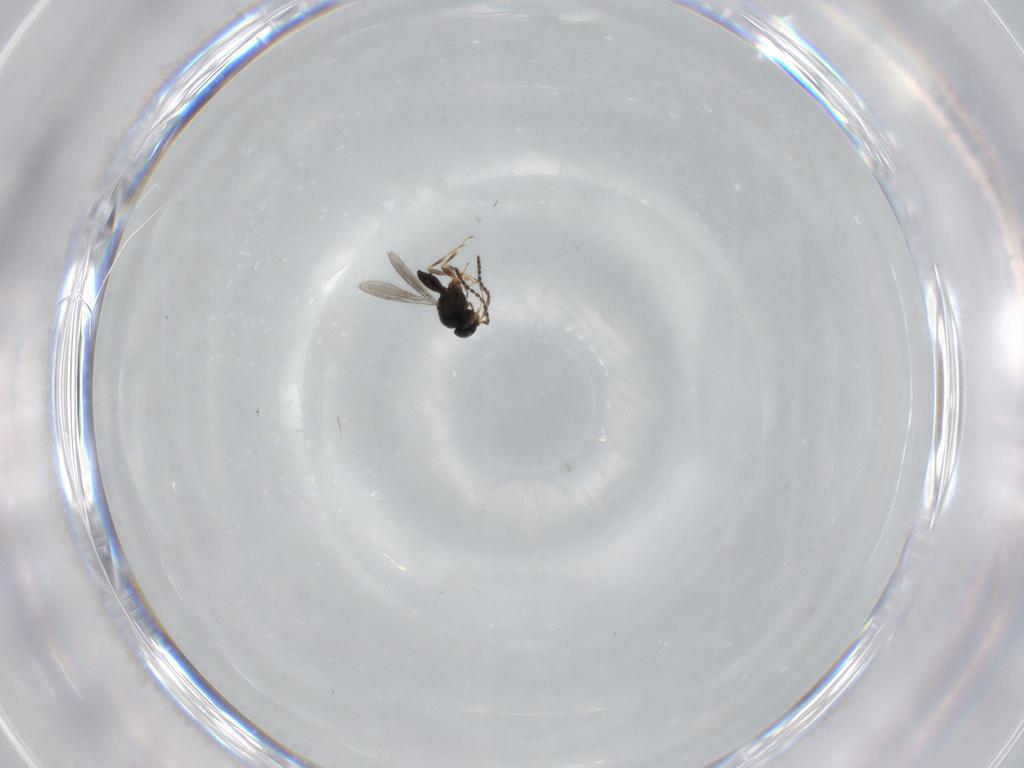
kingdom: Animalia
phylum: Arthropoda
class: Insecta
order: Hymenoptera
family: Scelionidae
